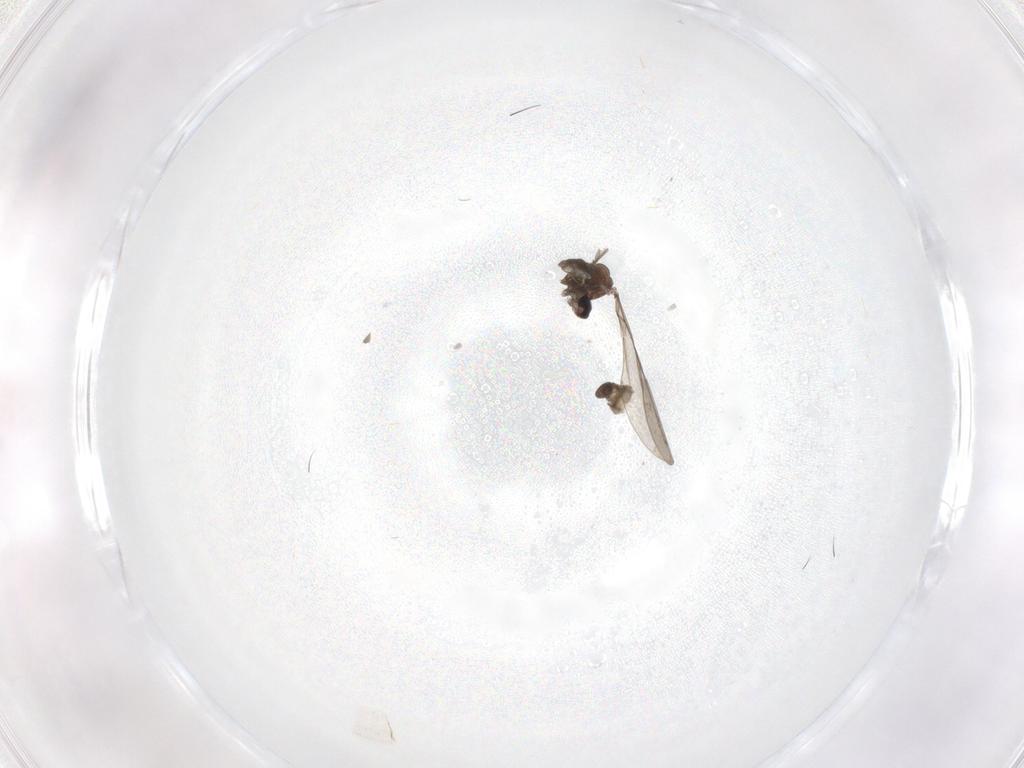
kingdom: Animalia
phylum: Arthropoda
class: Insecta
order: Diptera
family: Cecidomyiidae
